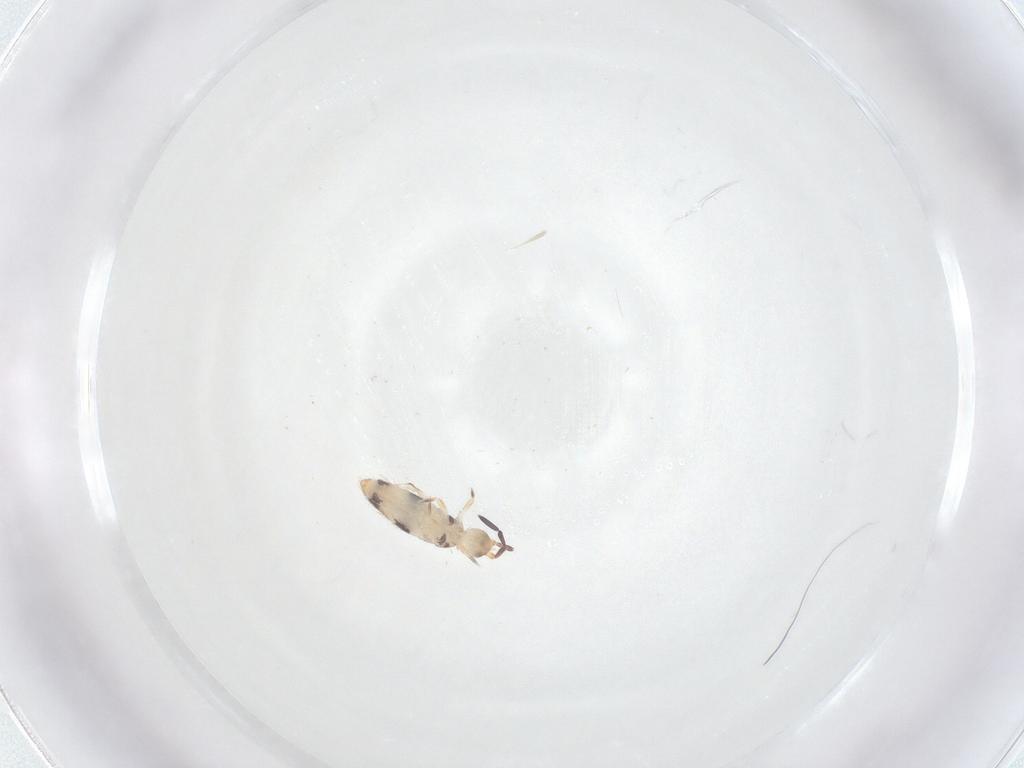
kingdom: Animalia
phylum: Arthropoda
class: Collembola
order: Entomobryomorpha
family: Entomobryidae
